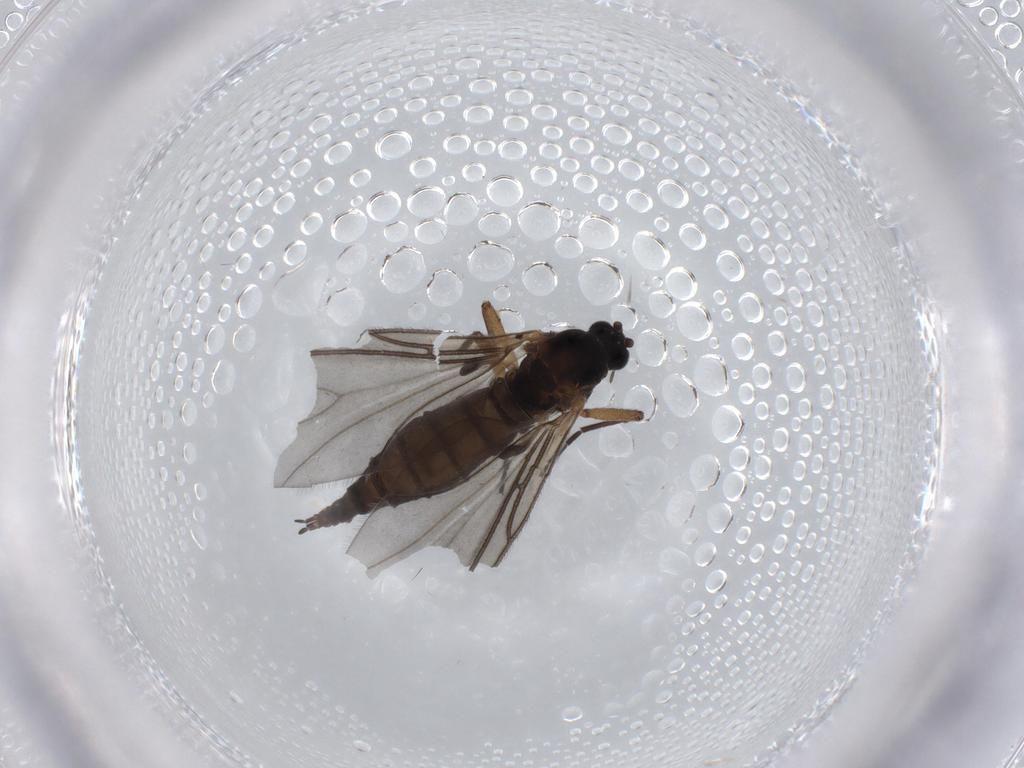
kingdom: Animalia
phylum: Arthropoda
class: Insecta
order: Diptera
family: Sciaridae
